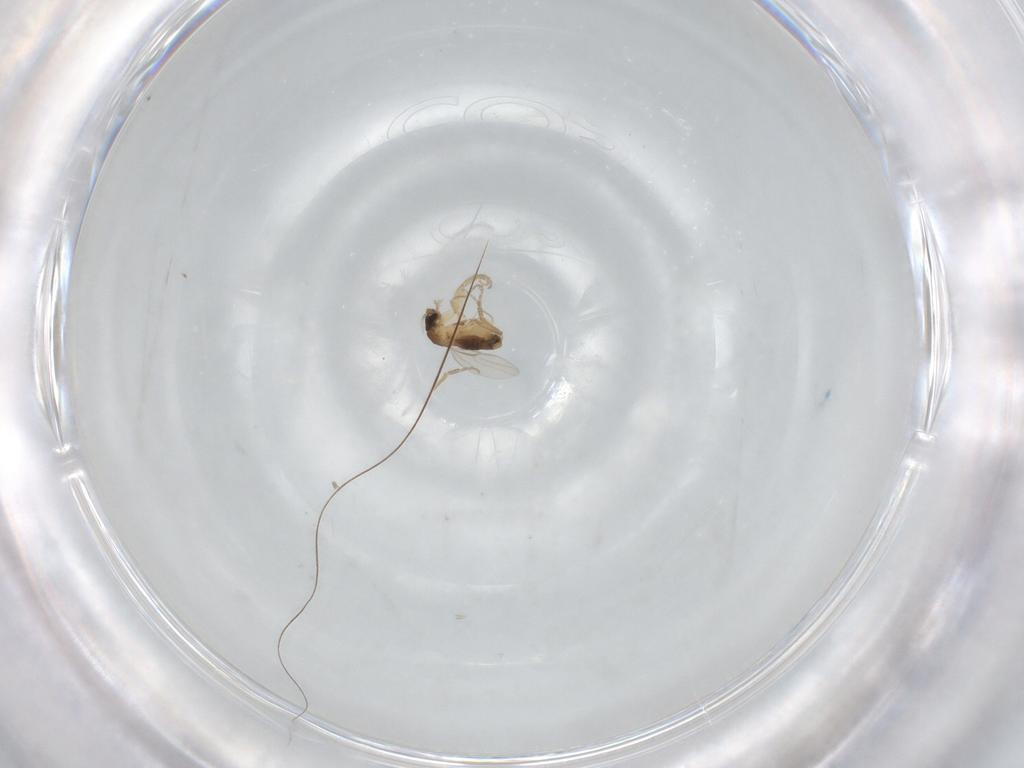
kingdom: Animalia
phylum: Arthropoda
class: Insecta
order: Diptera
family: Phoridae
